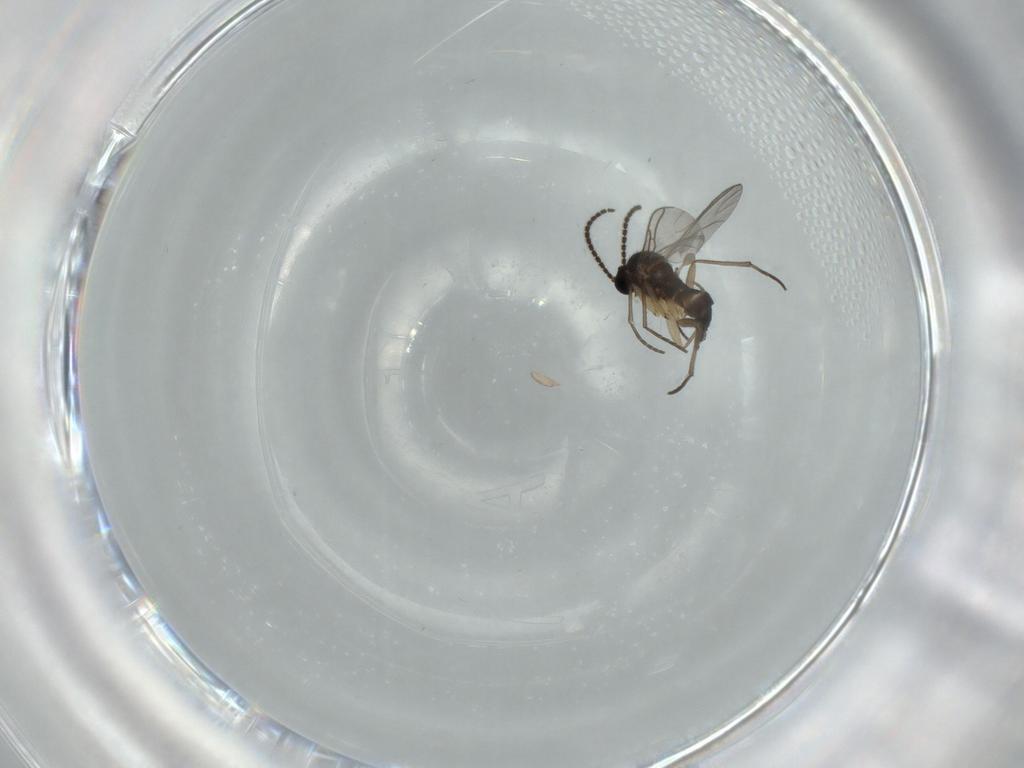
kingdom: Animalia
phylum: Arthropoda
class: Insecta
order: Diptera
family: Sciaridae
